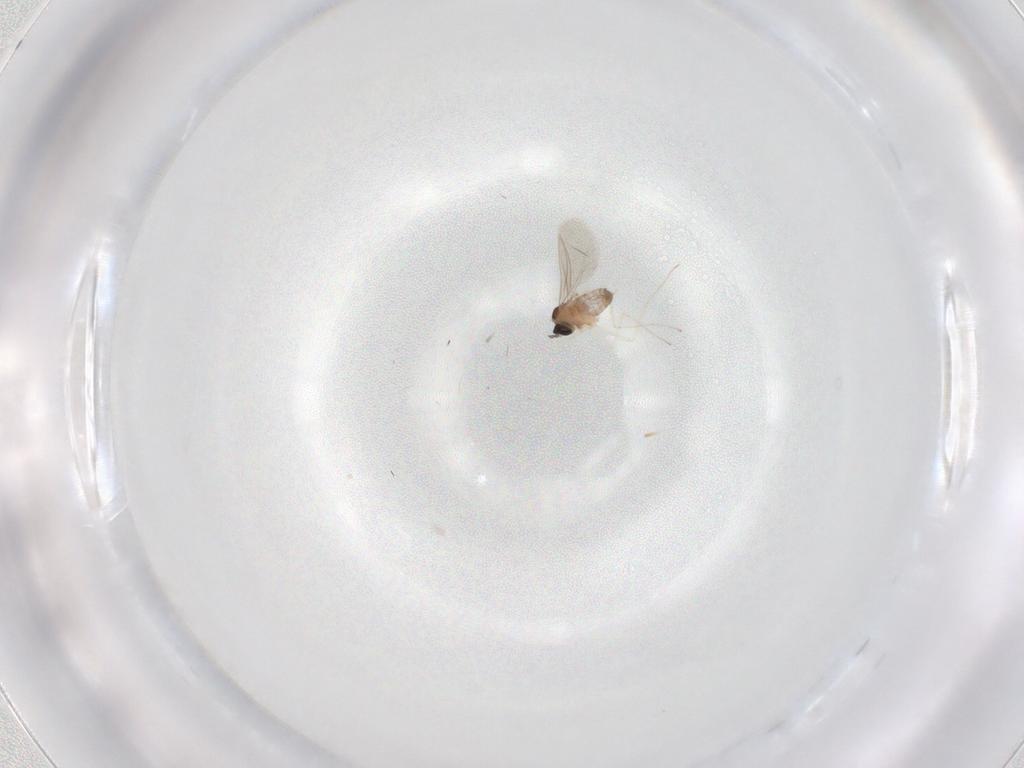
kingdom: Animalia
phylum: Arthropoda
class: Insecta
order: Diptera
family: Cecidomyiidae
